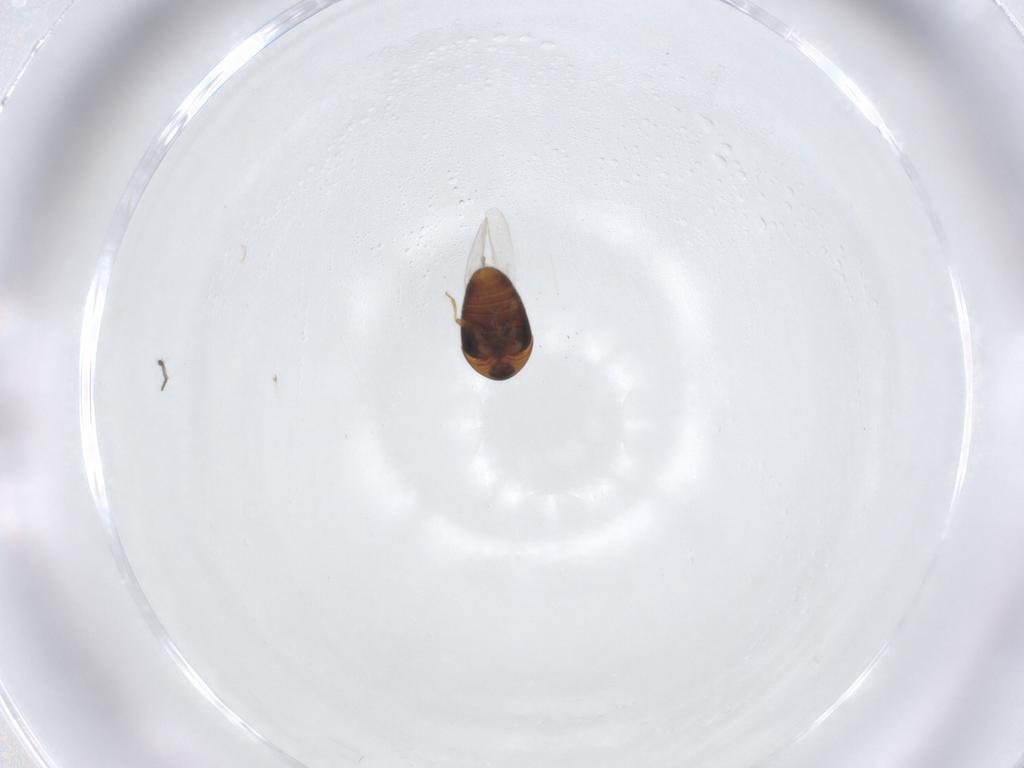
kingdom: Animalia
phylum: Arthropoda
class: Insecta
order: Coleoptera
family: Corylophidae
